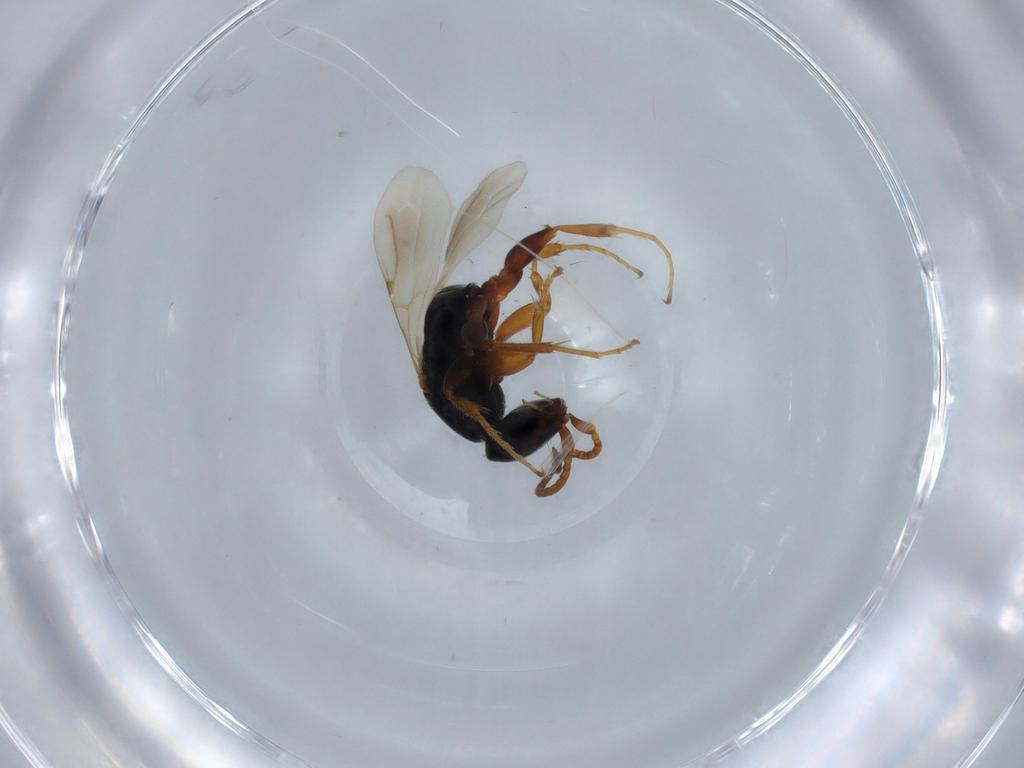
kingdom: Animalia
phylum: Arthropoda
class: Insecta
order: Hymenoptera
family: Bethylidae
